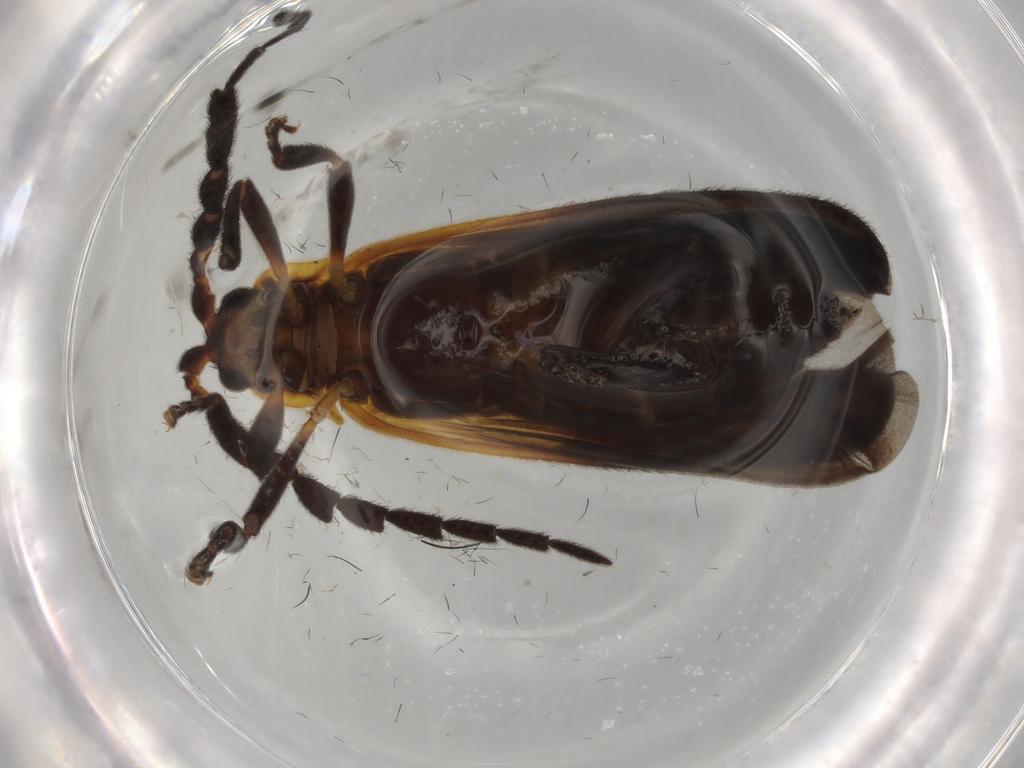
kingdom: Animalia
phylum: Arthropoda
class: Insecta
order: Coleoptera
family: Lycidae
